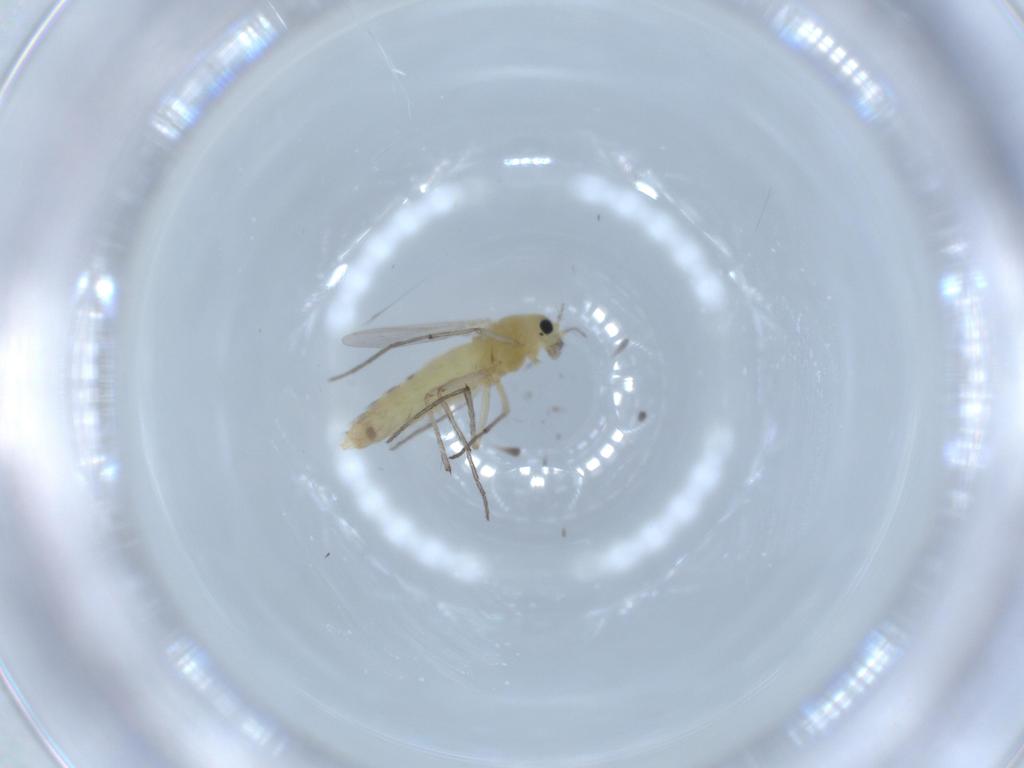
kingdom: Animalia
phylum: Arthropoda
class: Insecta
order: Diptera
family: Chironomidae
